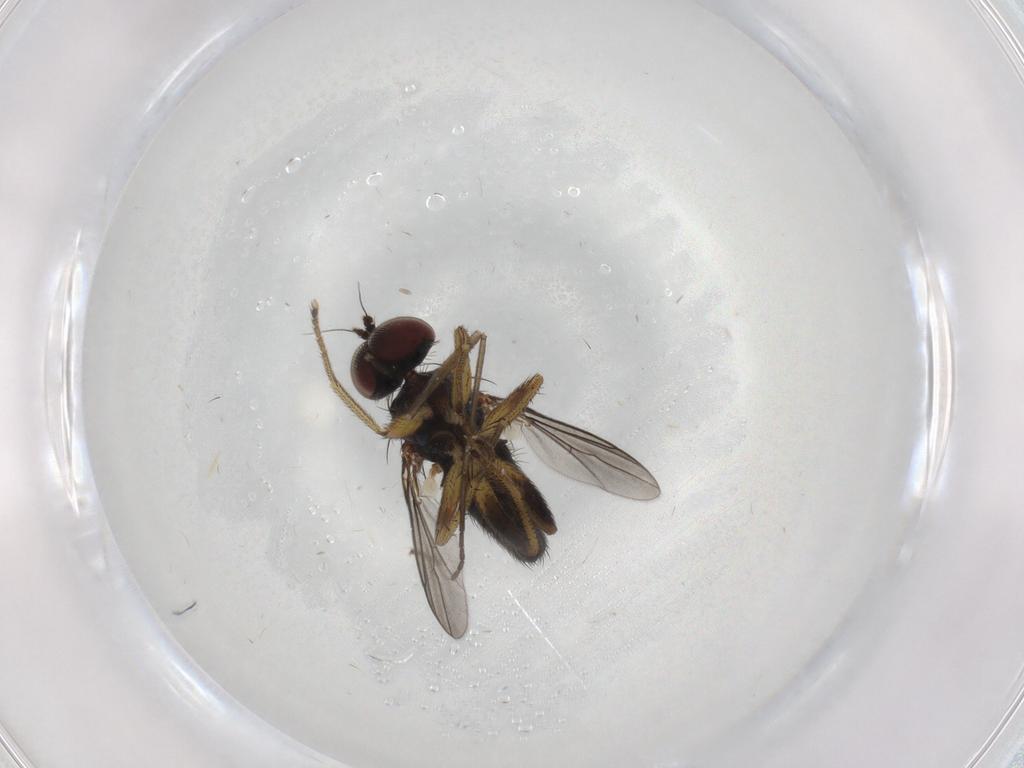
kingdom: Animalia
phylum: Arthropoda
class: Insecta
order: Diptera
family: Dolichopodidae
